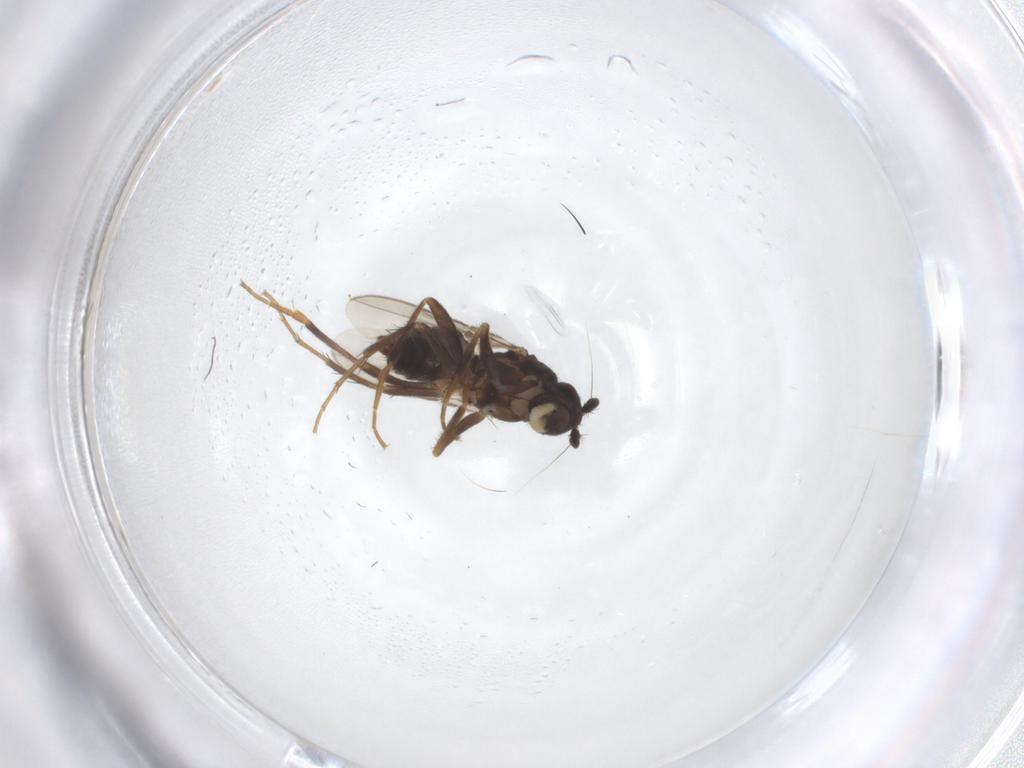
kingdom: Animalia
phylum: Arthropoda
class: Insecta
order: Diptera
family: Sphaeroceridae
